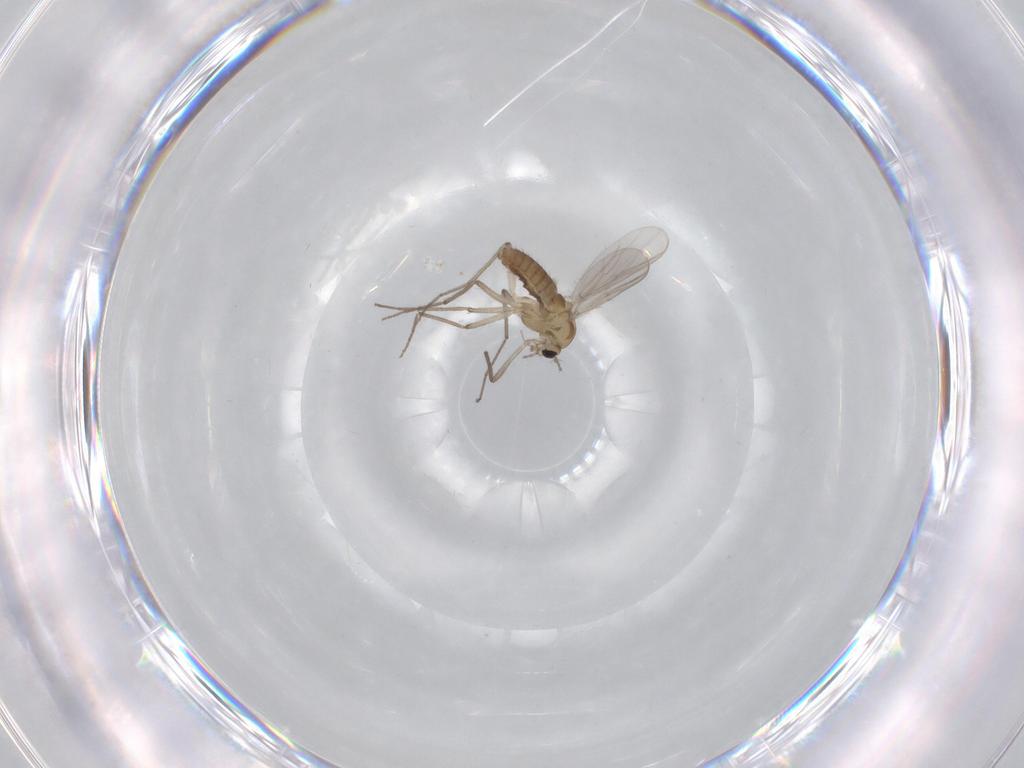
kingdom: Animalia
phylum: Arthropoda
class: Insecta
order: Diptera
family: Chironomidae
